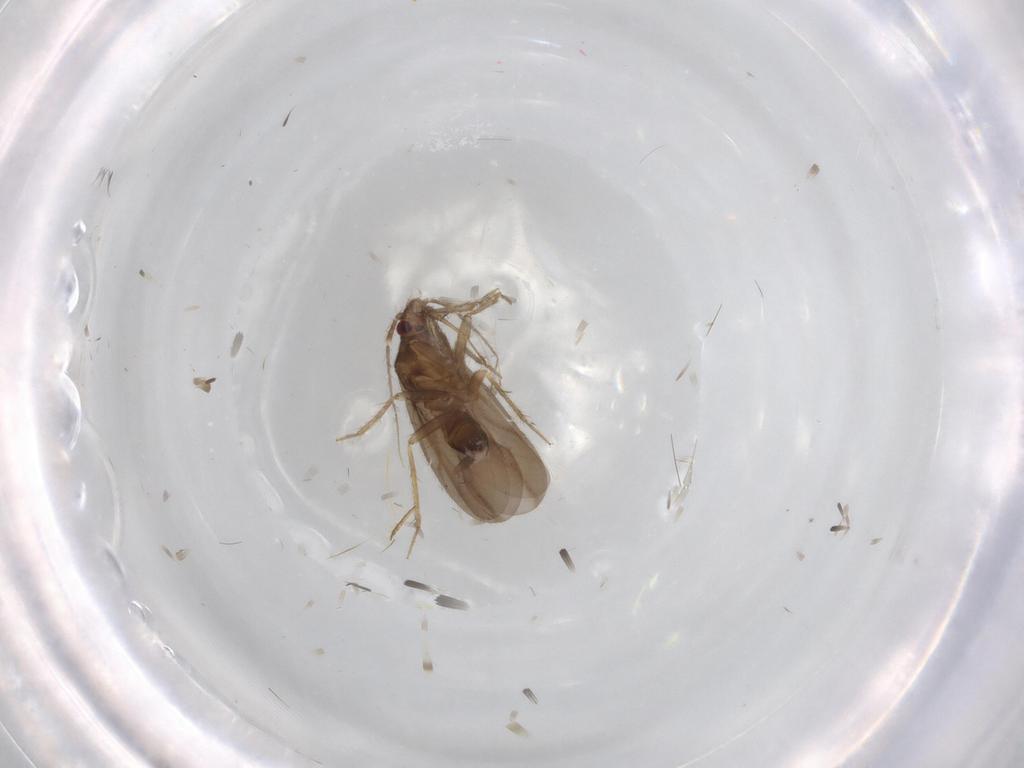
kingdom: Animalia
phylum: Arthropoda
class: Insecta
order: Hemiptera
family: Ceratocombidae
